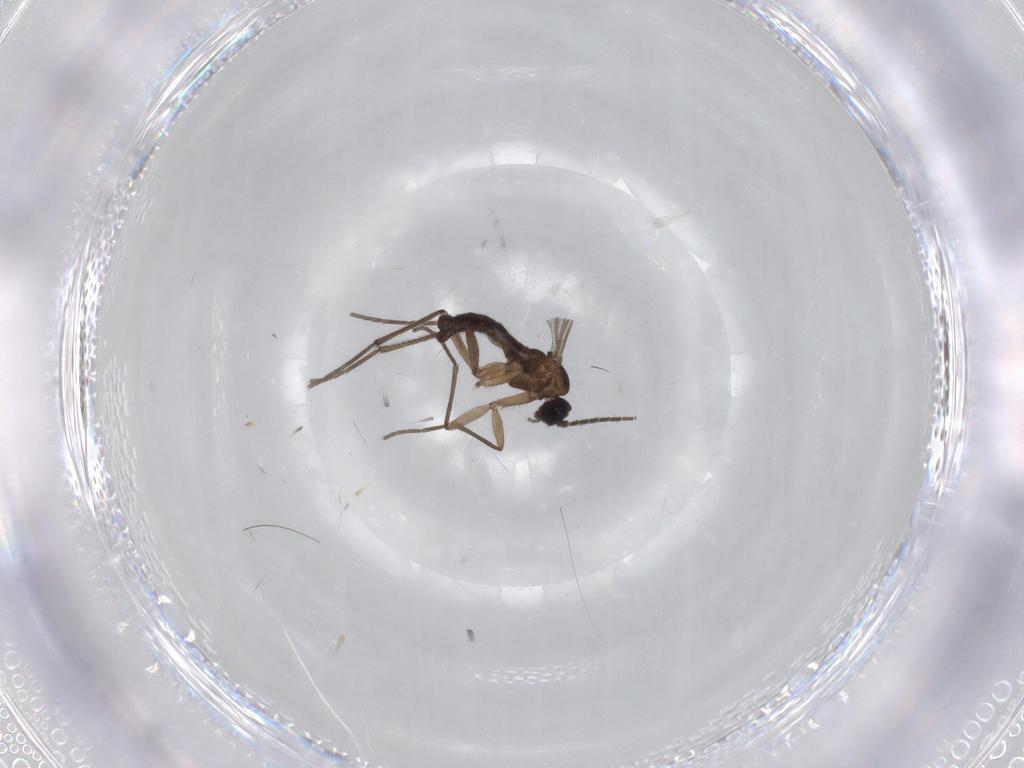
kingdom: Animalia
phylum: Arthropoda
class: Insecta
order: Diptera
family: Sciaridae
